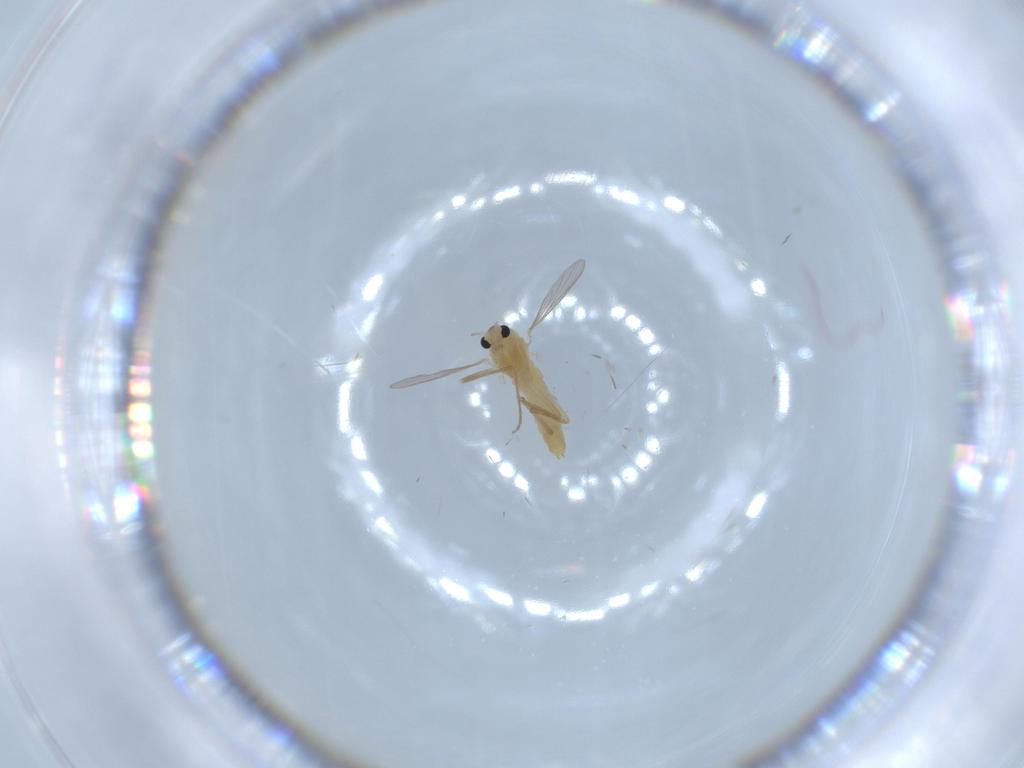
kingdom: Animalia
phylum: Arthropoda
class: Insecta
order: Diptera
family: Chironomidae
